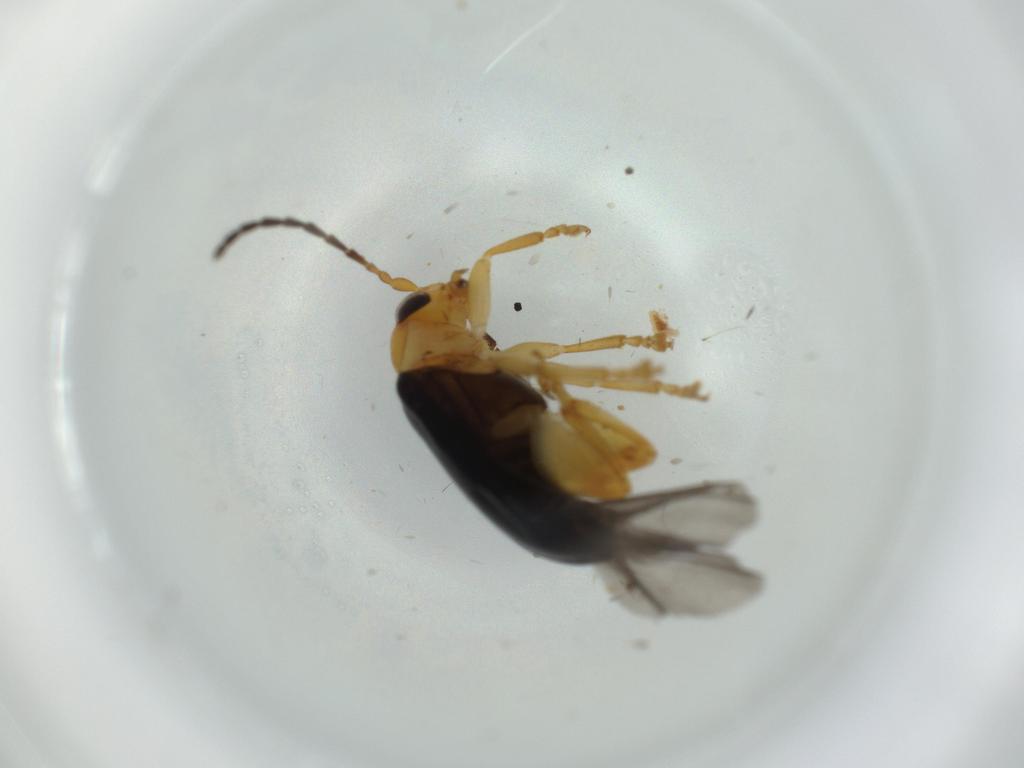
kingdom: Animalia
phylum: Arthropoda
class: Insecta
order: Coleoptera
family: Chrysomelidae
